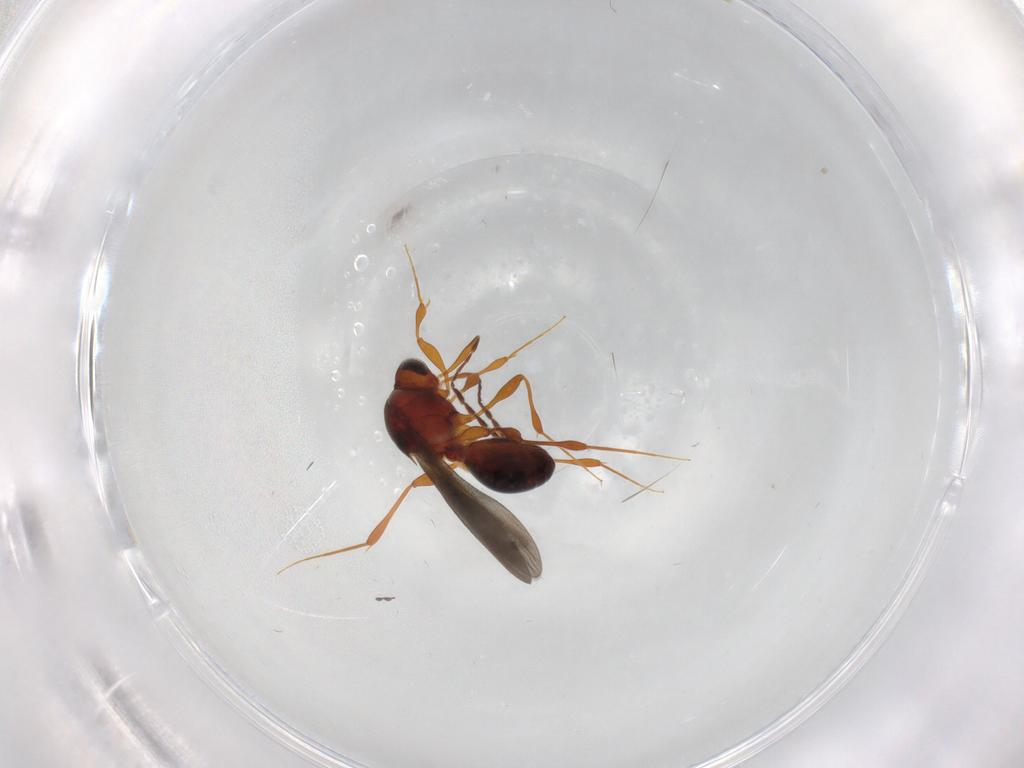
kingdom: Animalia
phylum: Arthropoda
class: Insecta
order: Hymenoptera
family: Platygastridae
